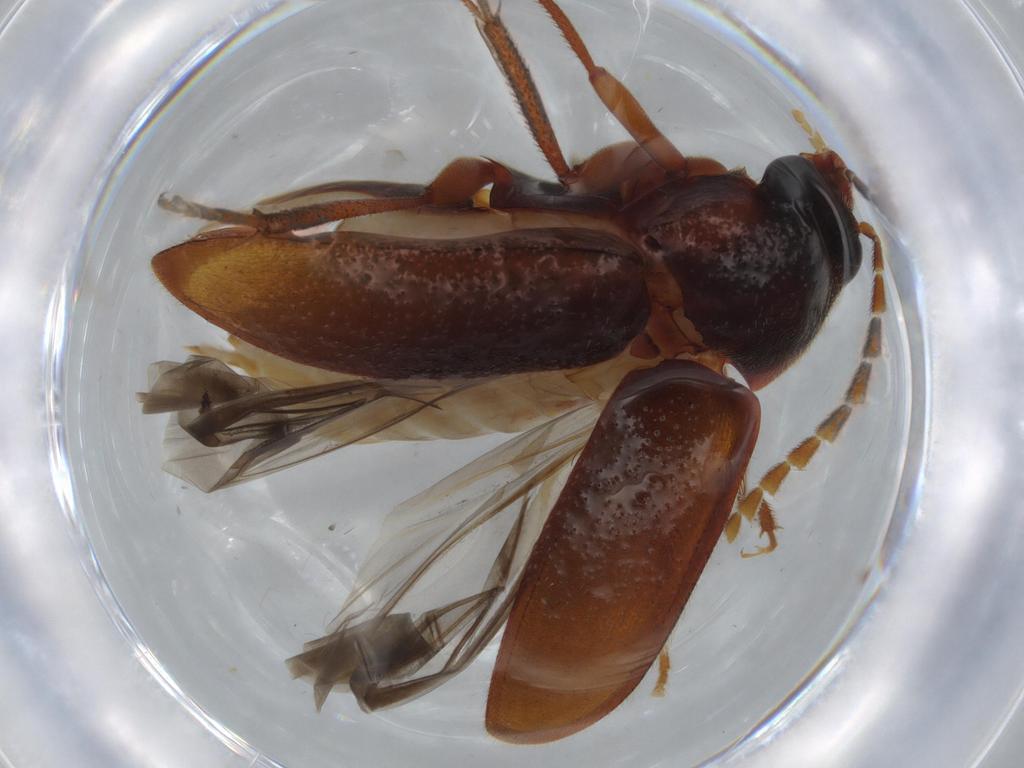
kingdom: Animalia
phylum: Arthropoda
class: Insecta
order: Coleoptera
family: Ptilodactylidae
